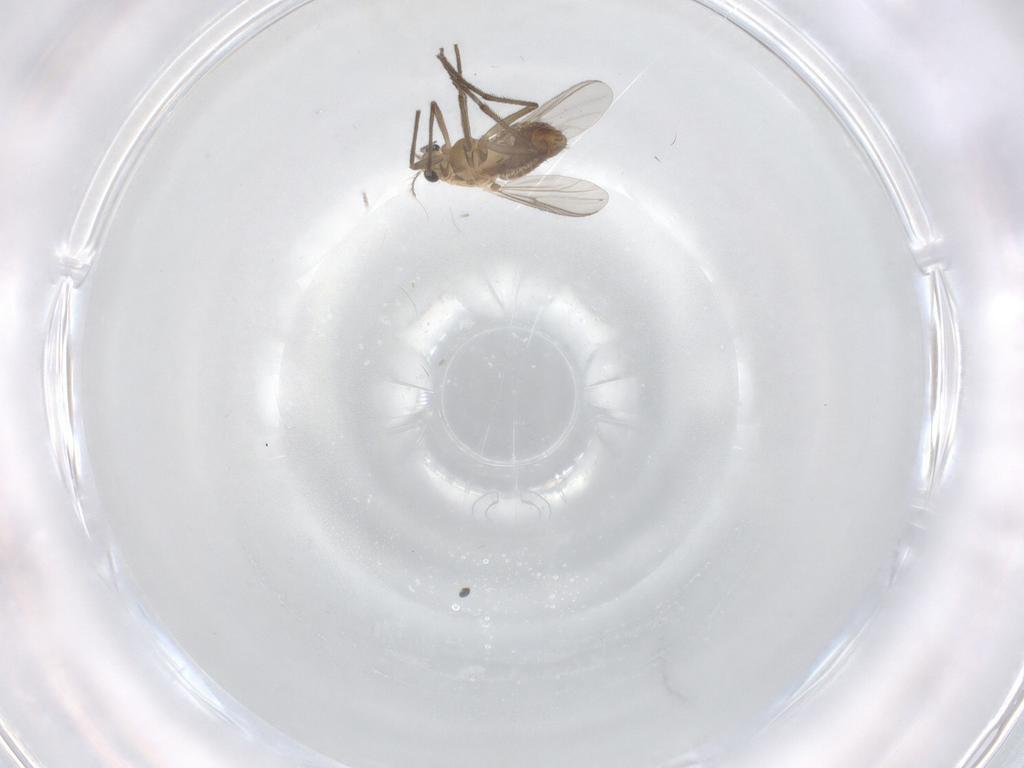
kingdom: Animalia
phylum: Arthropoda
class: Insecta
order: Diptera
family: Chironomidae
